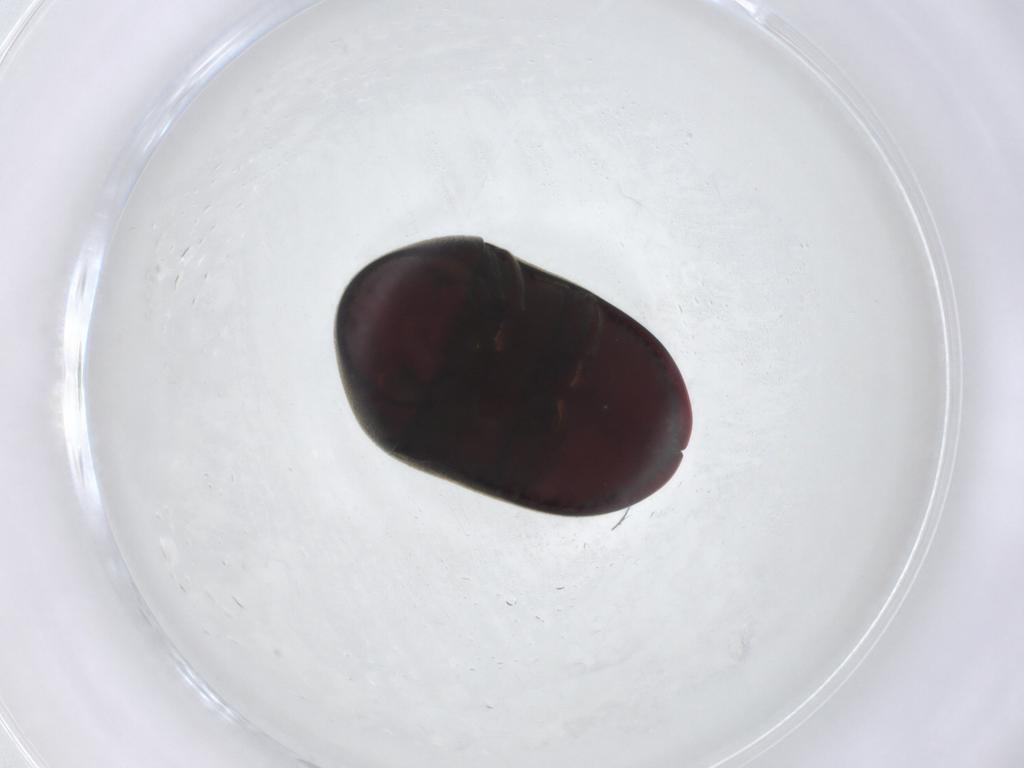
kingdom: Animalia
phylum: Arthropoda
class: Insecta
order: Coleoptera
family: Ptinidae
